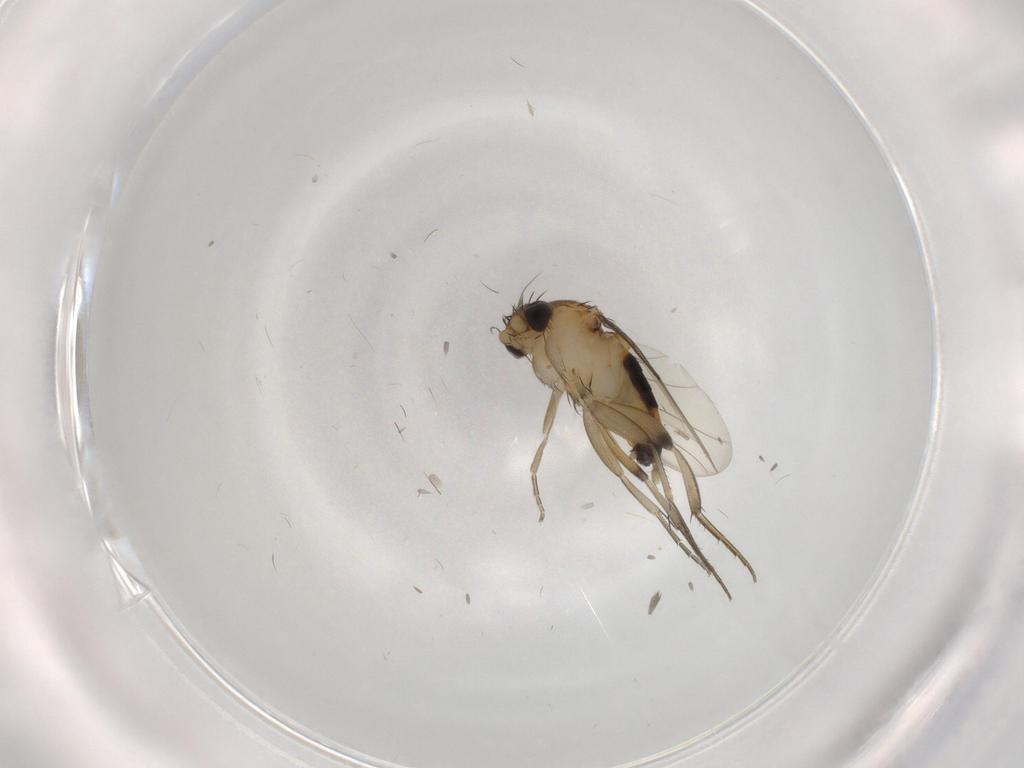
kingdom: Animalia
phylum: Arthropoda
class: Insecta
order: Diptera
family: Phoridae
